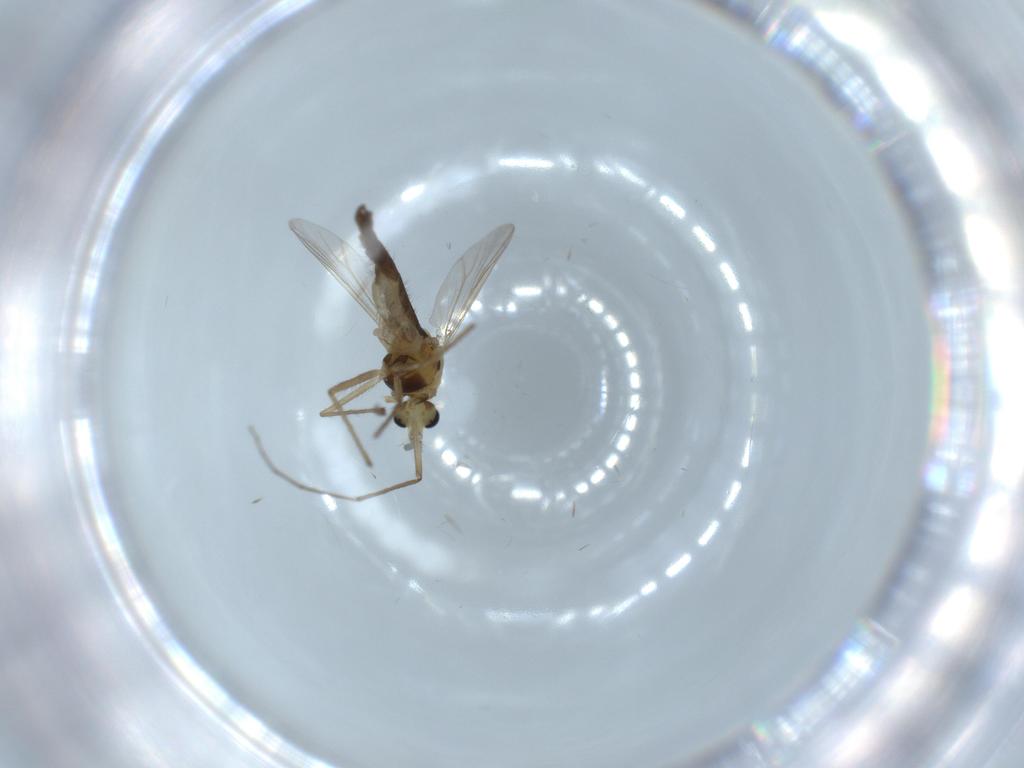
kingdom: Animalia
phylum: Arthropoda
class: Insecta
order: Diptera
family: Chironomidae
